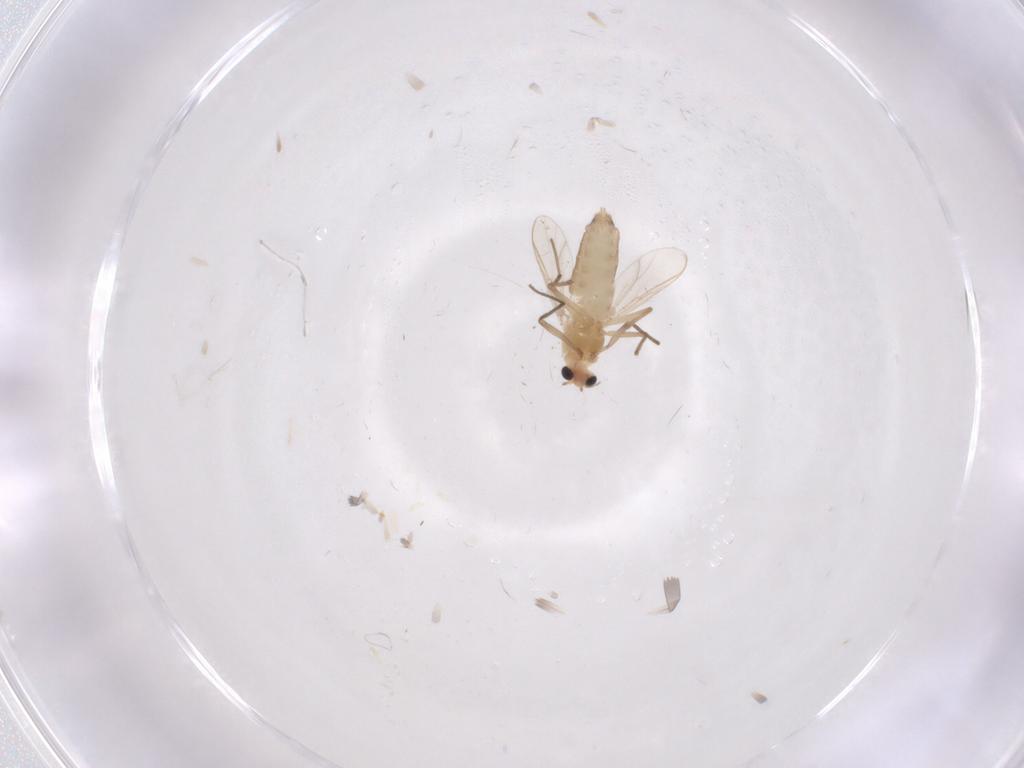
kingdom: Animalia
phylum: Arthropoda
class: Insecta
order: Diptera
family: Chironomidae
